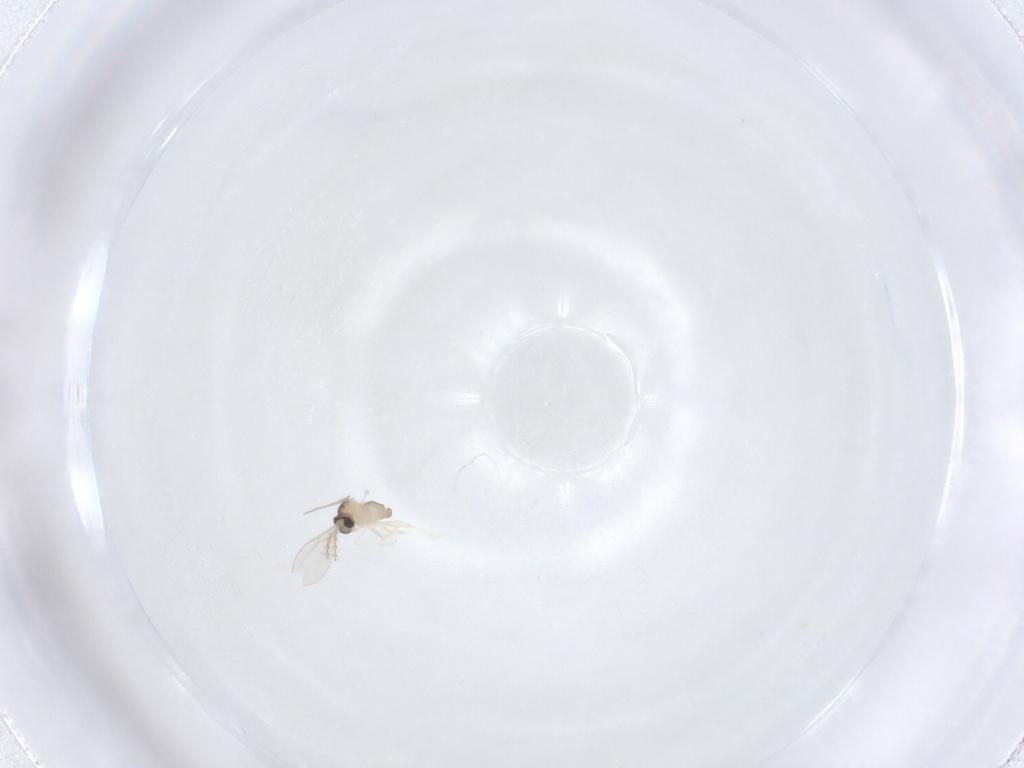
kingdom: Animalia
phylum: Arthropoda
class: Insecta
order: Diptera
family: Cecidomyiidae
